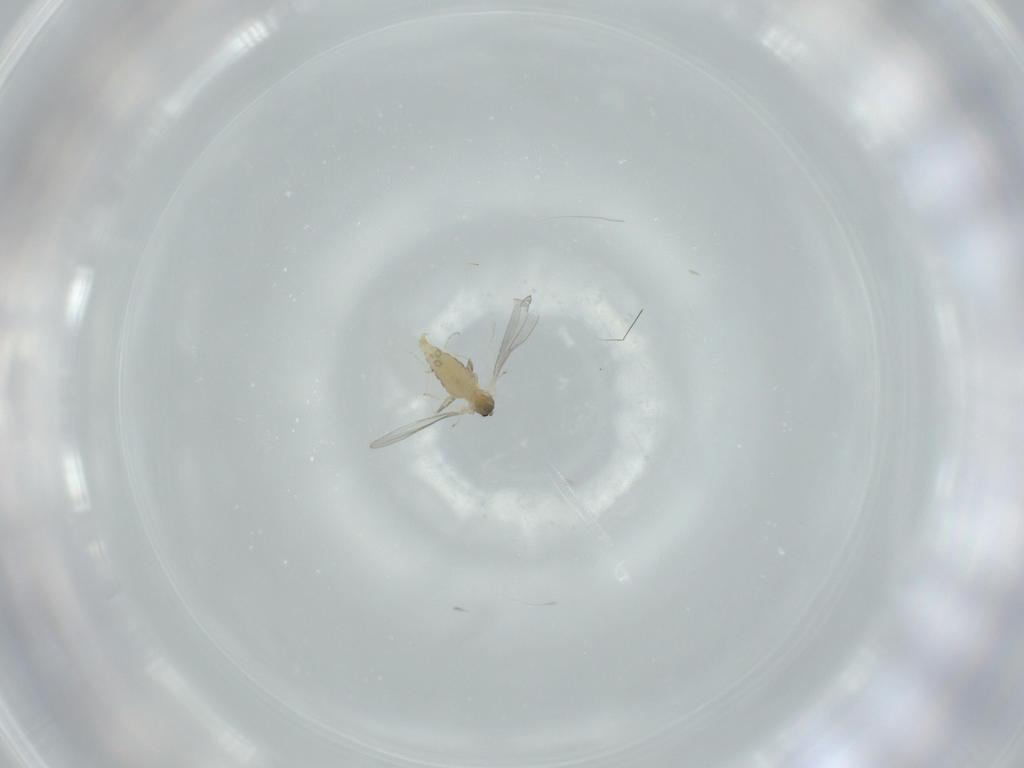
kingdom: Animalia
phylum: Arthropoda
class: Insecta
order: Diptera
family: Cecidomyiidae
